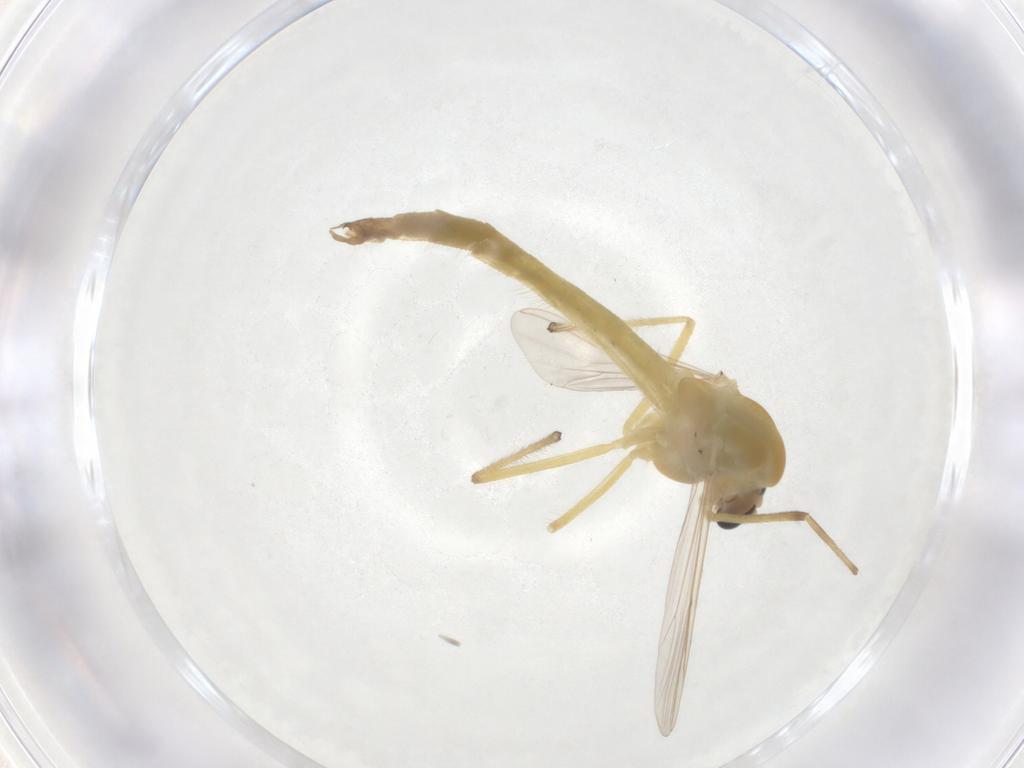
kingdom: Animalia
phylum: Arthropoda
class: Insecta
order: Diptera
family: Chironomidae
